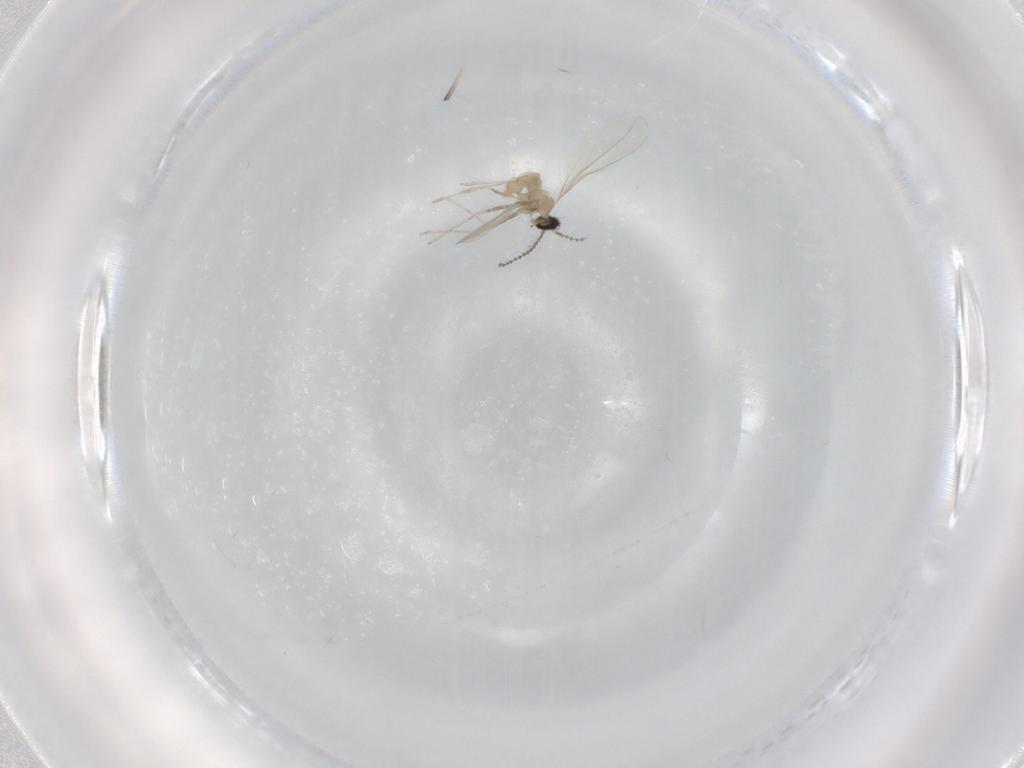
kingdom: Animalia
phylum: Arthropoda
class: Insecta
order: Diptera
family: Cecidomyiidae
